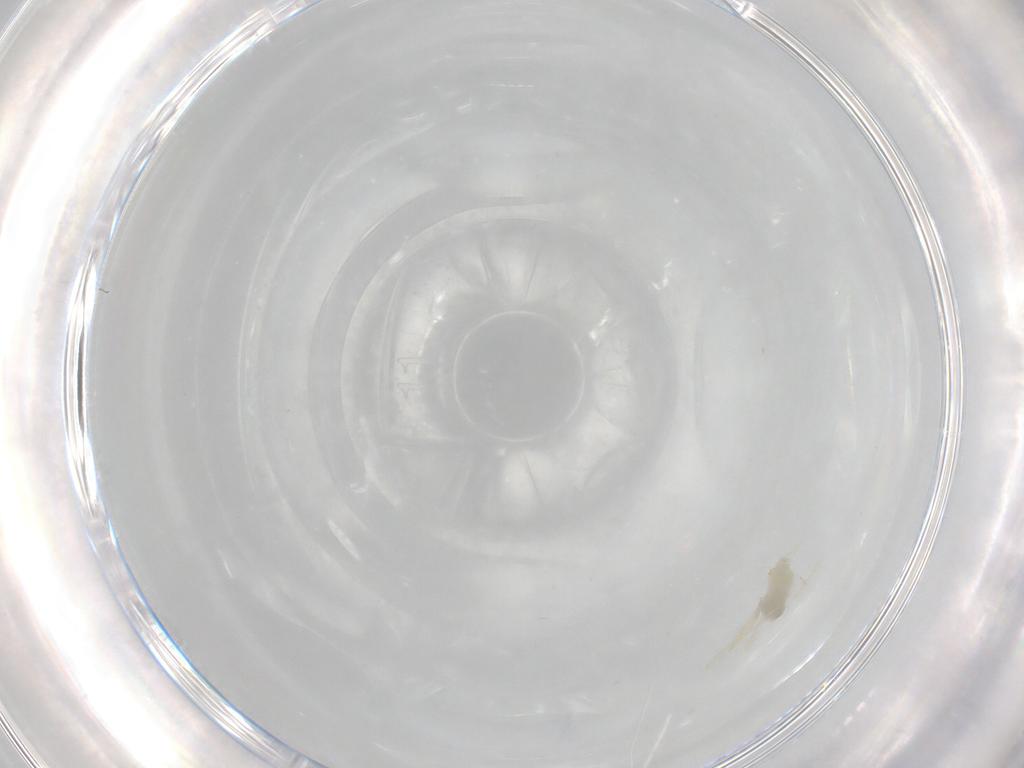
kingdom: Animalia
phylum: Arthropoda
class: Insecta
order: Hemiptera
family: Aleyrodidae
